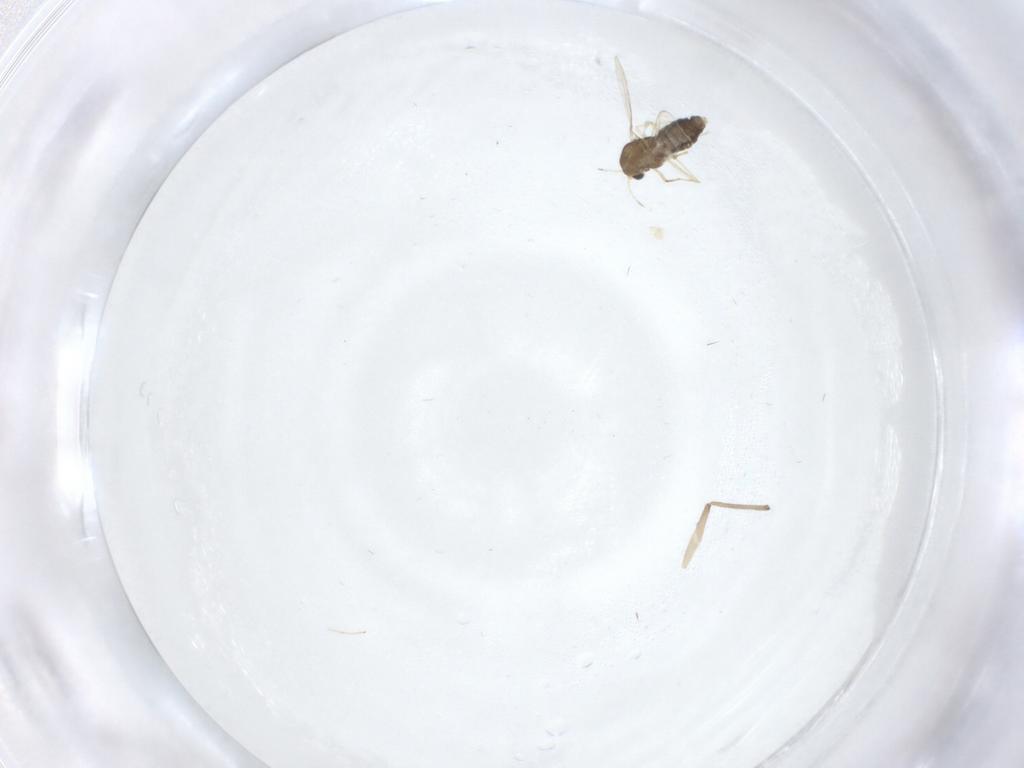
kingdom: Animalia
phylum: Arthropoda
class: Insecta
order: Diptera
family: Chironomidae
